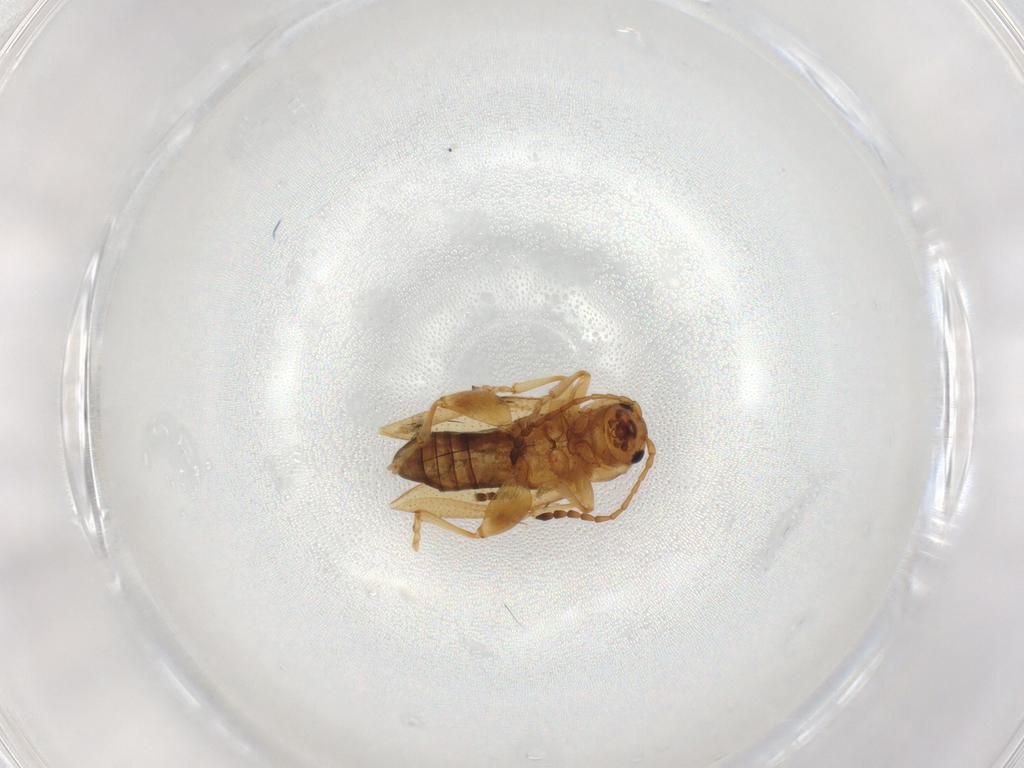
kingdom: Animalia
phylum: Arthropoda
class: Insecta
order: Coleoptera
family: Chrysomelidae
